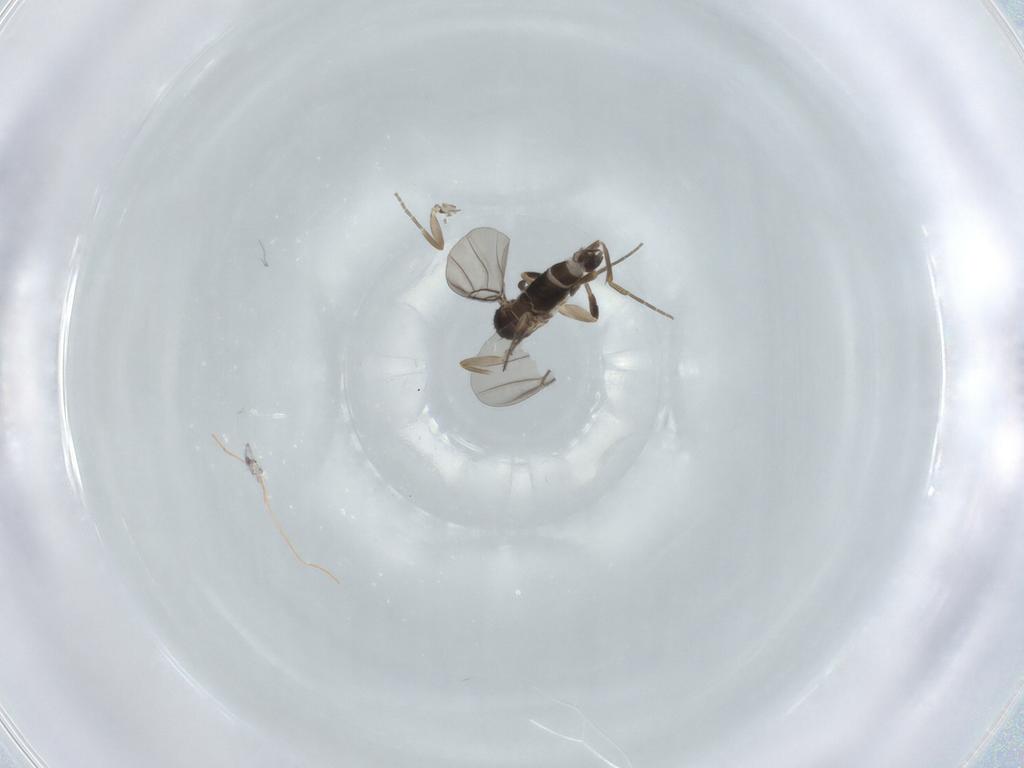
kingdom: Animalia
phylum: Arthropoda
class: Insecta
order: Diptera
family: Phoridae
